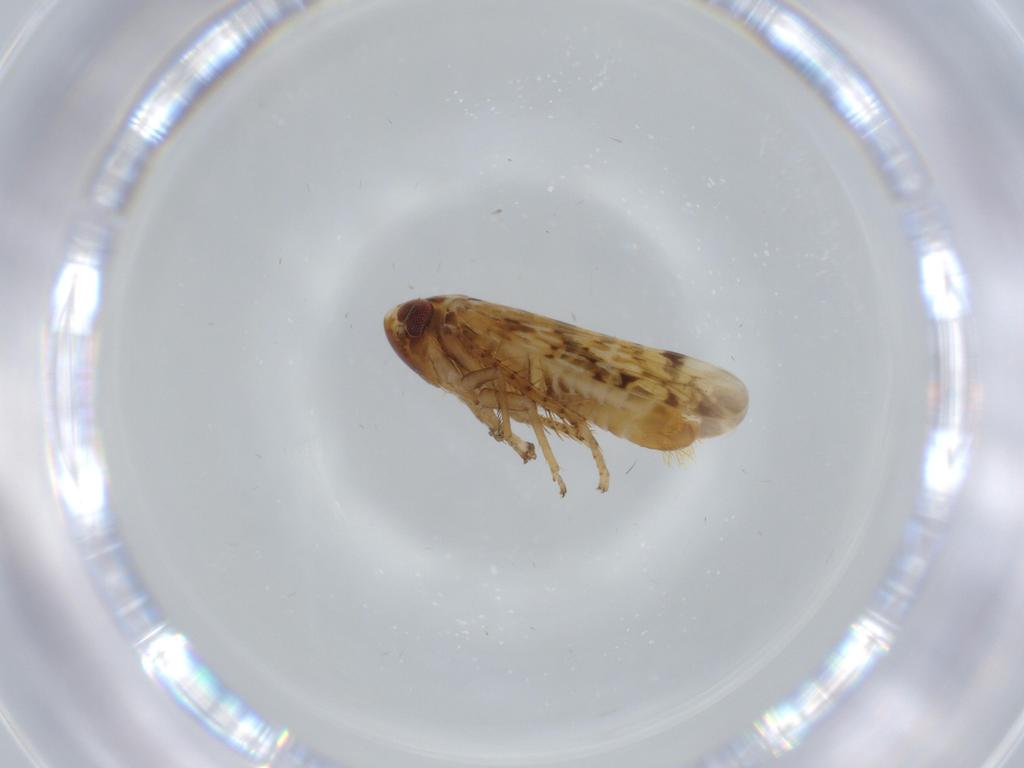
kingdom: Animalia
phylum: Arthropoda
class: Insecta
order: Hemiptera
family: Cicadellidae
